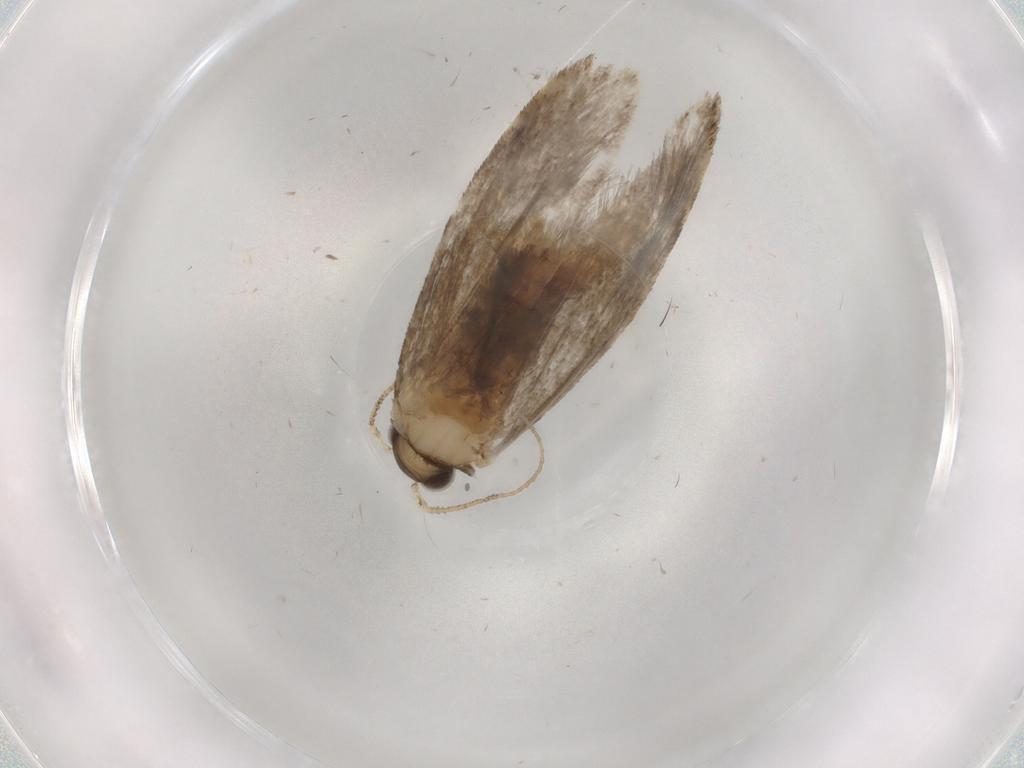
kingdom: Animalia
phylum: Arthropoda
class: Insecta
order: Lepidoptera
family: Tineidae
